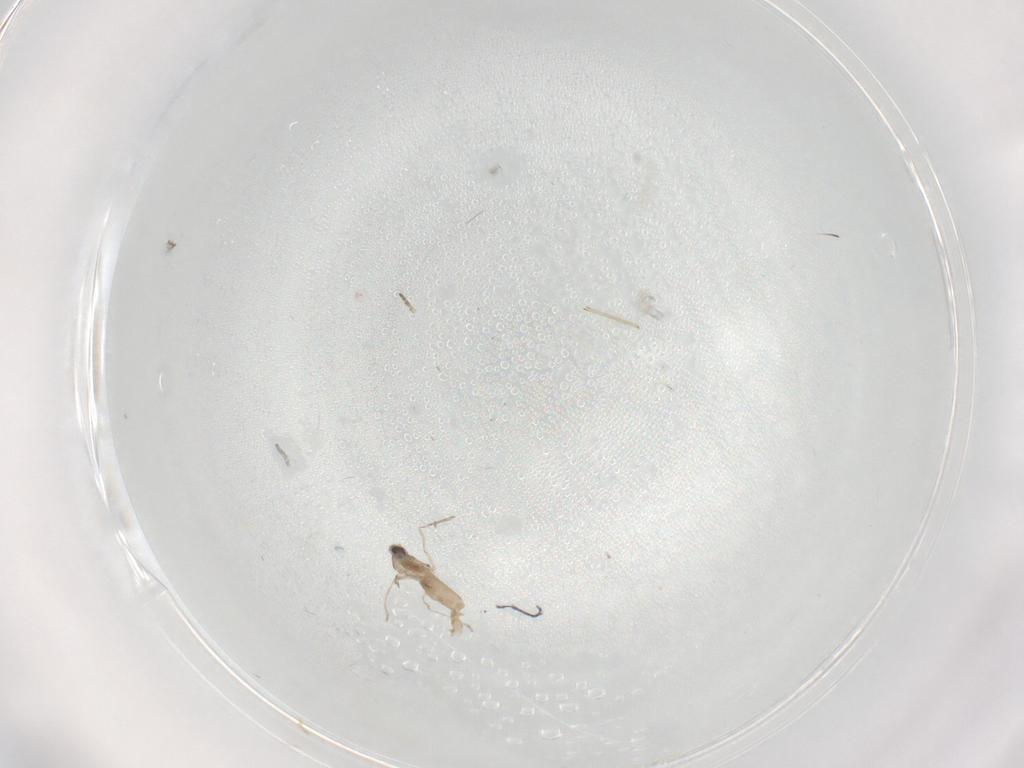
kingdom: Animalia
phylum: Arthropoda
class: Insecta
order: Diptera
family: Cecidomyiidae
